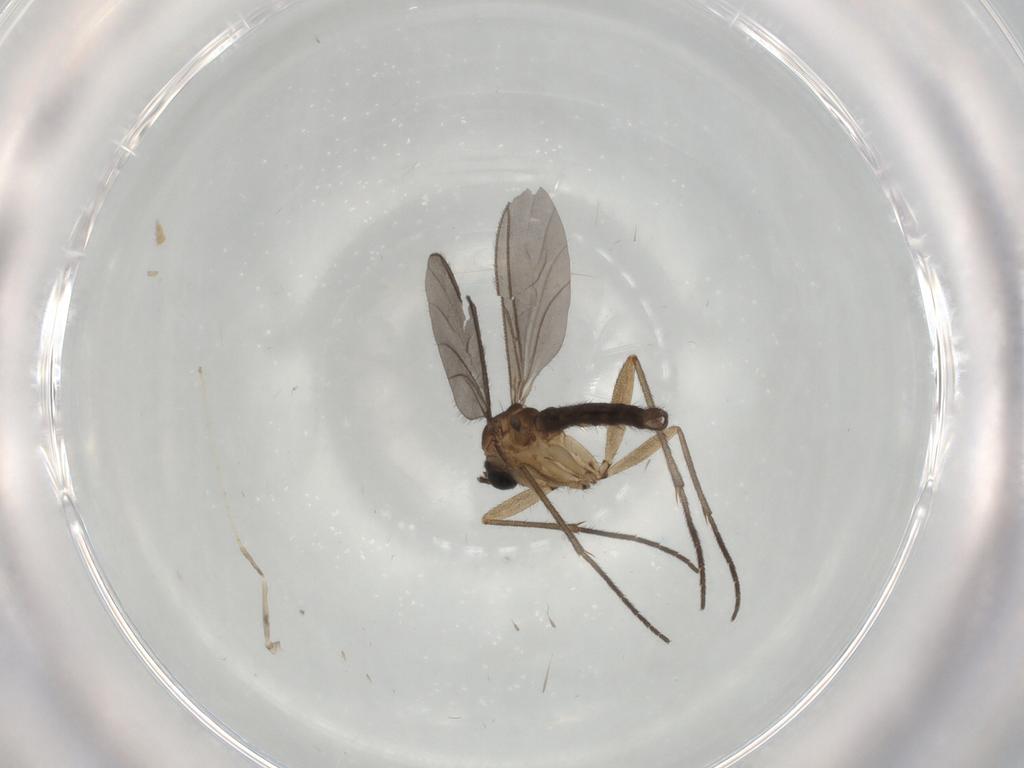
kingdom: Animalia
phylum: Arthropoda
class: Insecta
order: Diptera
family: Cecidomyiidae
